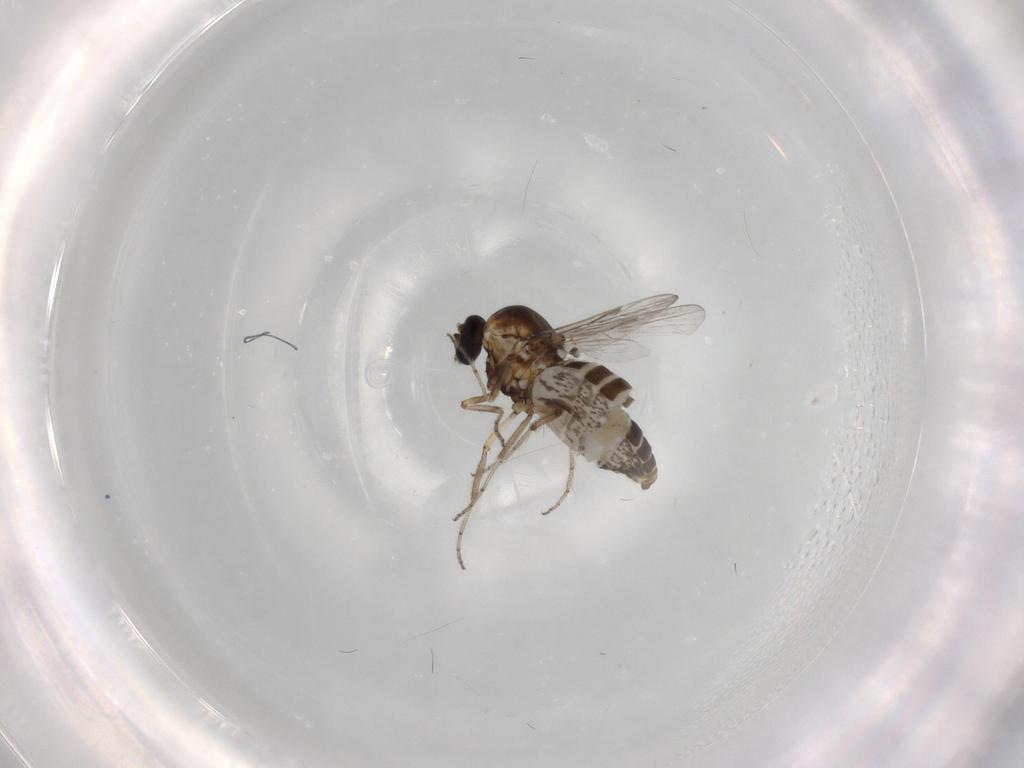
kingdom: Animalia
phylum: Arthropoda
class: Insecta
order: Diptera
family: Ceratopogonidae
